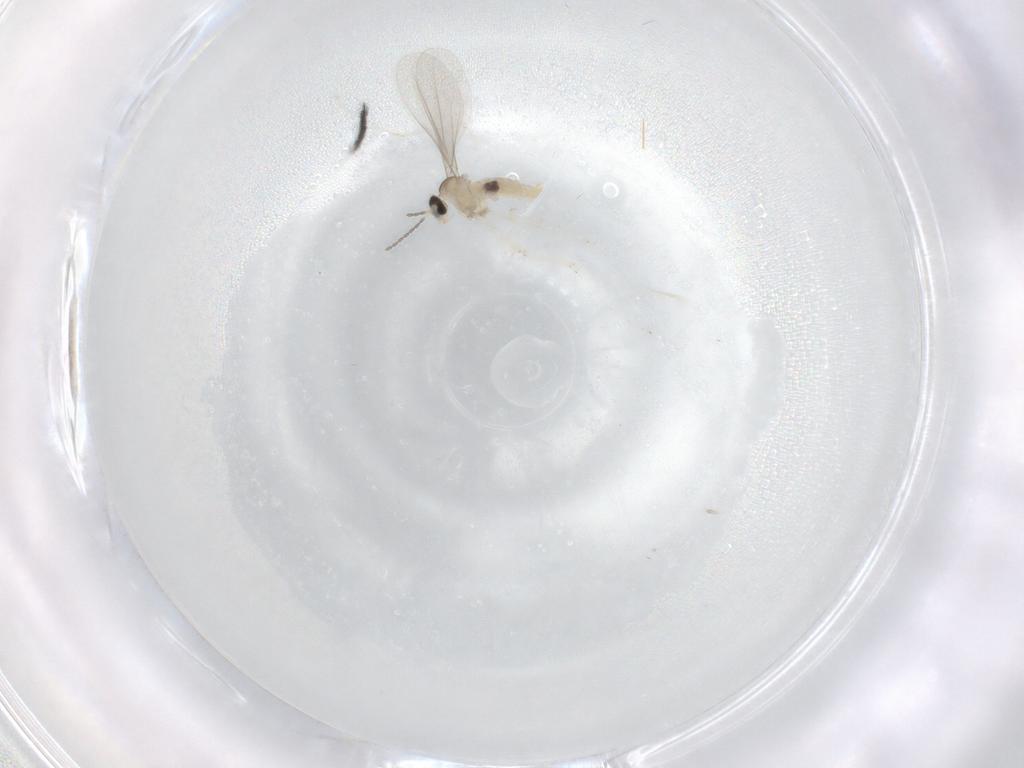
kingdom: Animalia
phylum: Arthropoda
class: Insecta
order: Diptera
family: Cecidomyiidae
